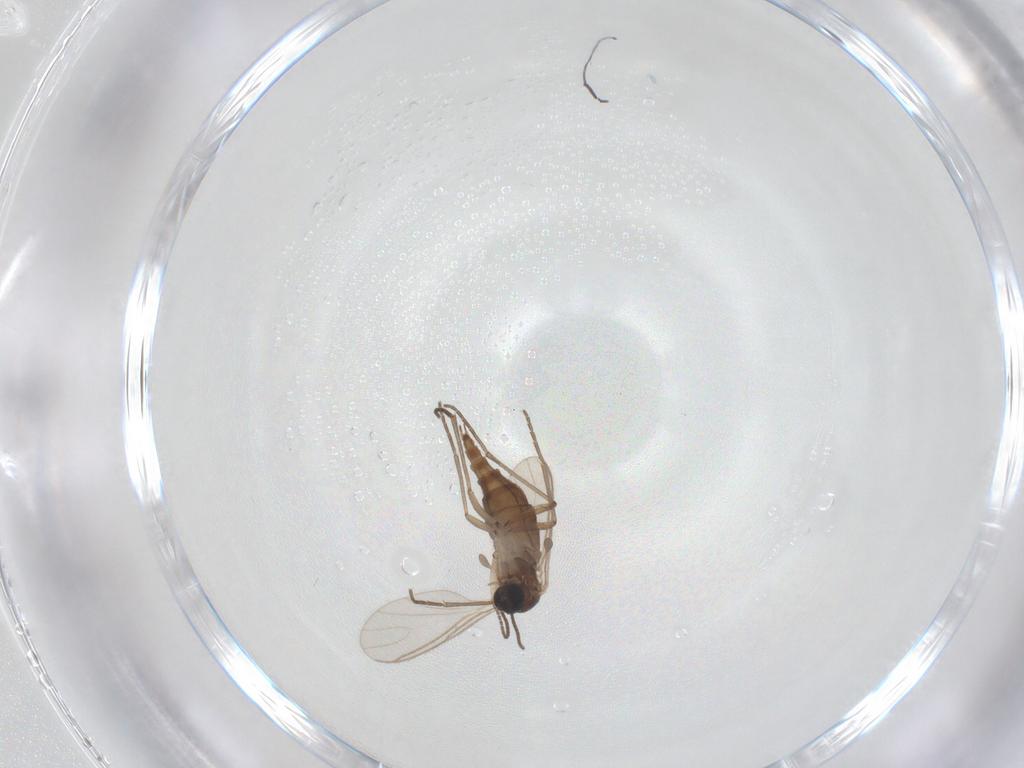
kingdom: Animalia
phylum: Arthropoda
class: Insecta
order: Diptera
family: Sciaridae
